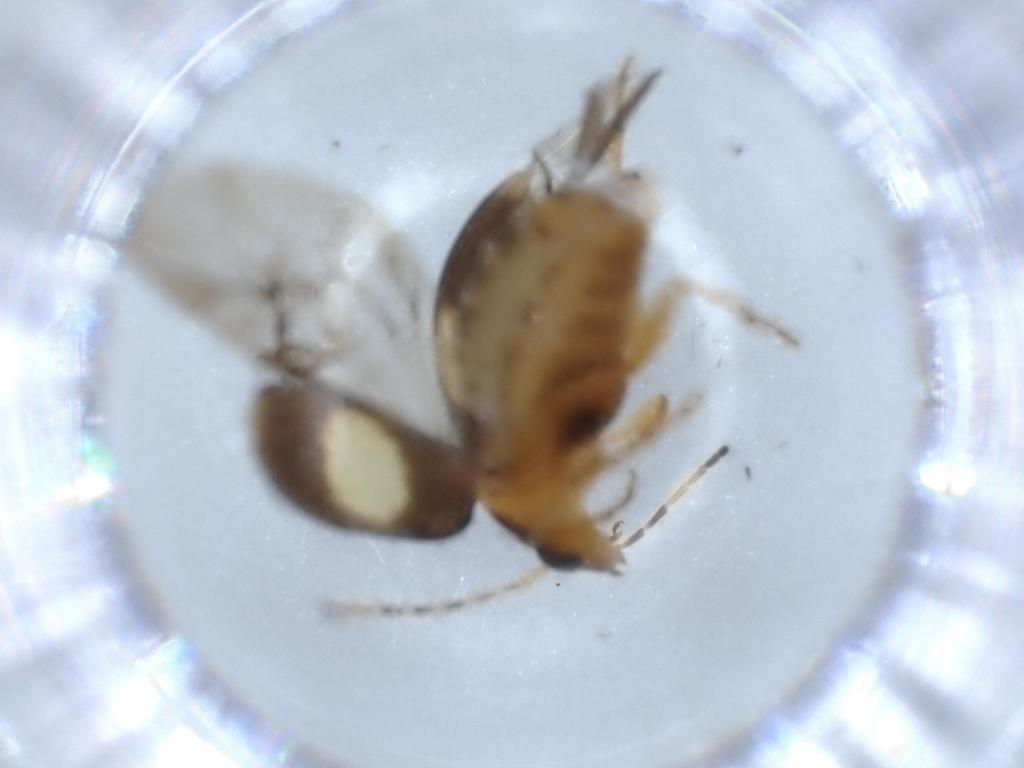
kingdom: Animalia
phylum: Arthropoda
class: Insecta
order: Coleoptera
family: Chrysomelidae
